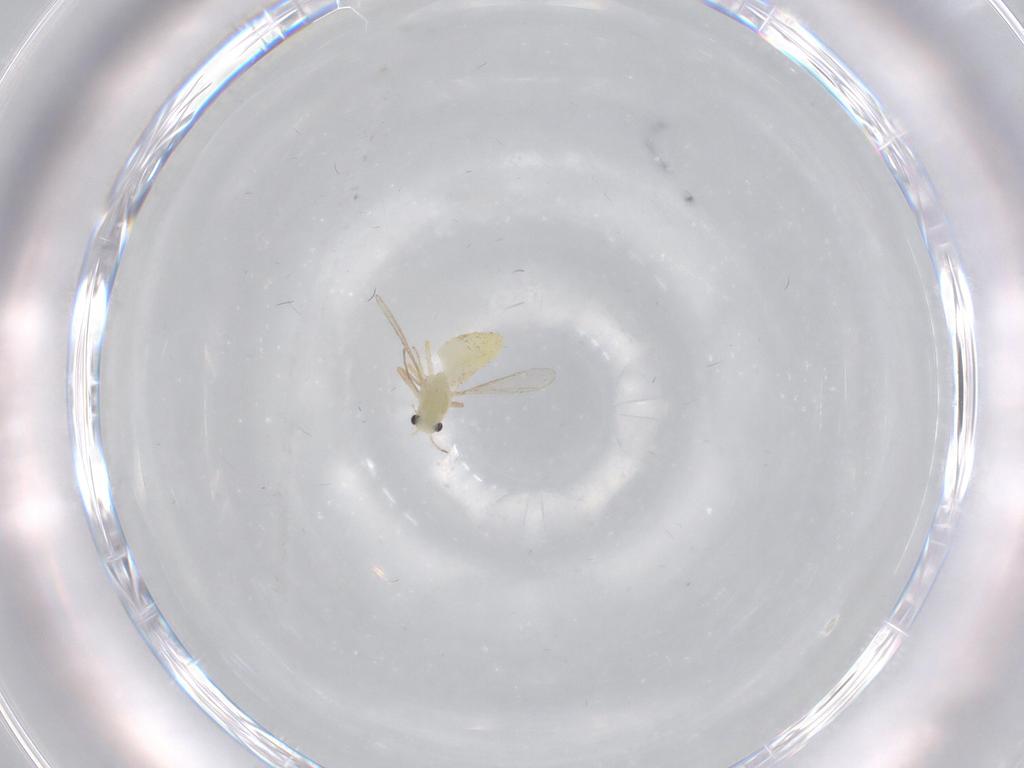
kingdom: Animalia
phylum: Arthropoda
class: Insecta
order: Diptera
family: Chironomidae
